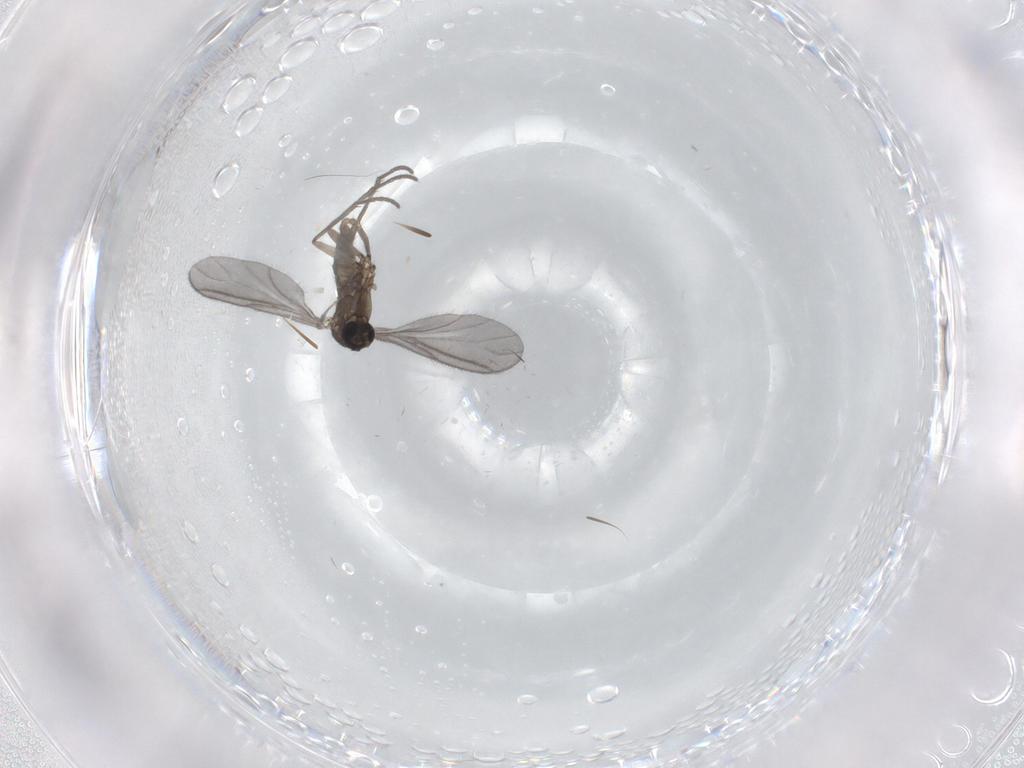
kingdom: Animalia
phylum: Arthropoda
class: Insecta
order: Diptera
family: Sciaridae
